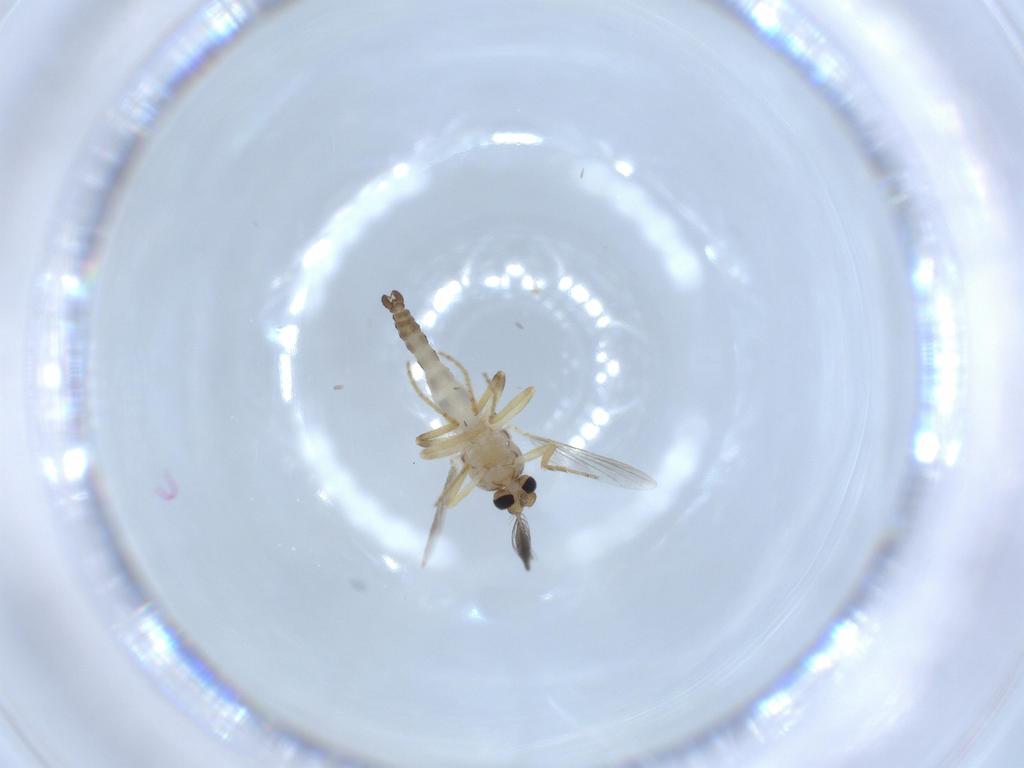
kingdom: Animalia
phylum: Arthropoda
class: Insecta
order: Diptera
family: Ceratopogonidae
